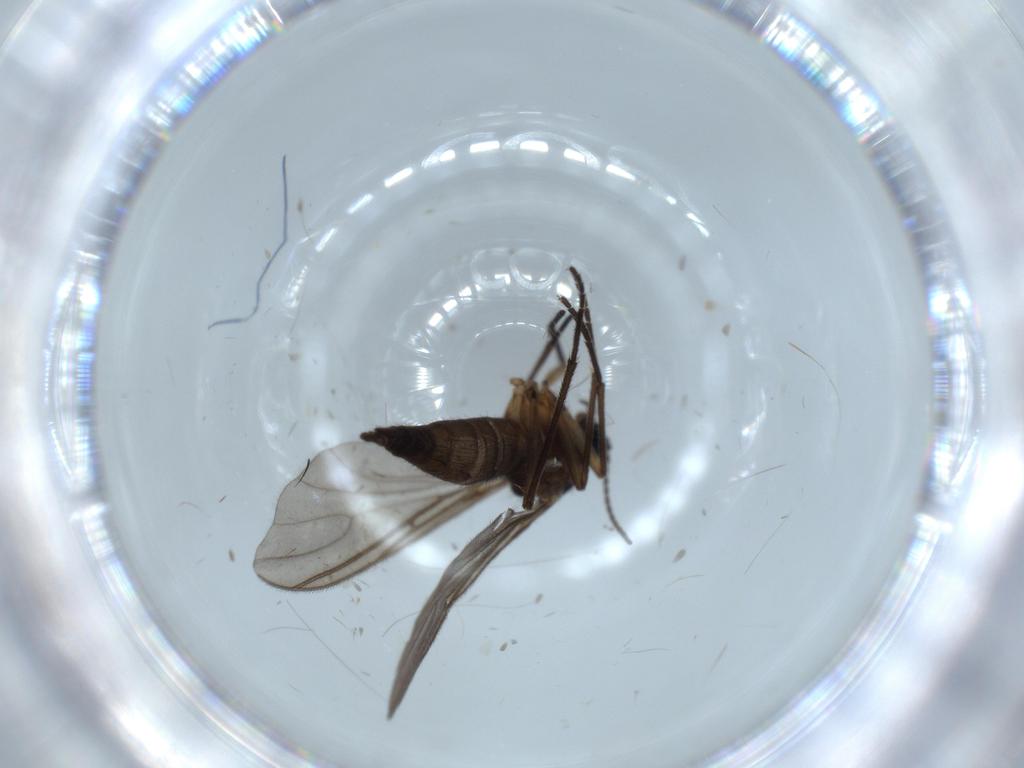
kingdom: Animalia
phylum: Arthropoda
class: Insecta
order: Diptera
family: Sciaridae
